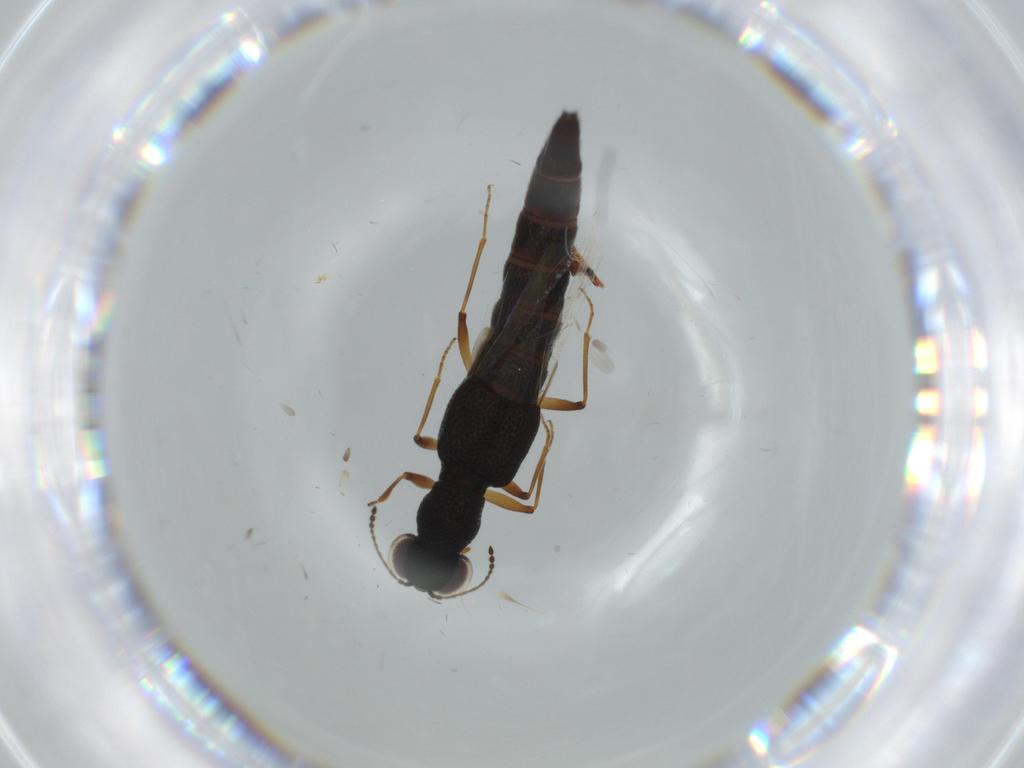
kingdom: Animalia
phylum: Arthropoda
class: Insecta
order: Coleoptera
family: Staphylinidae
